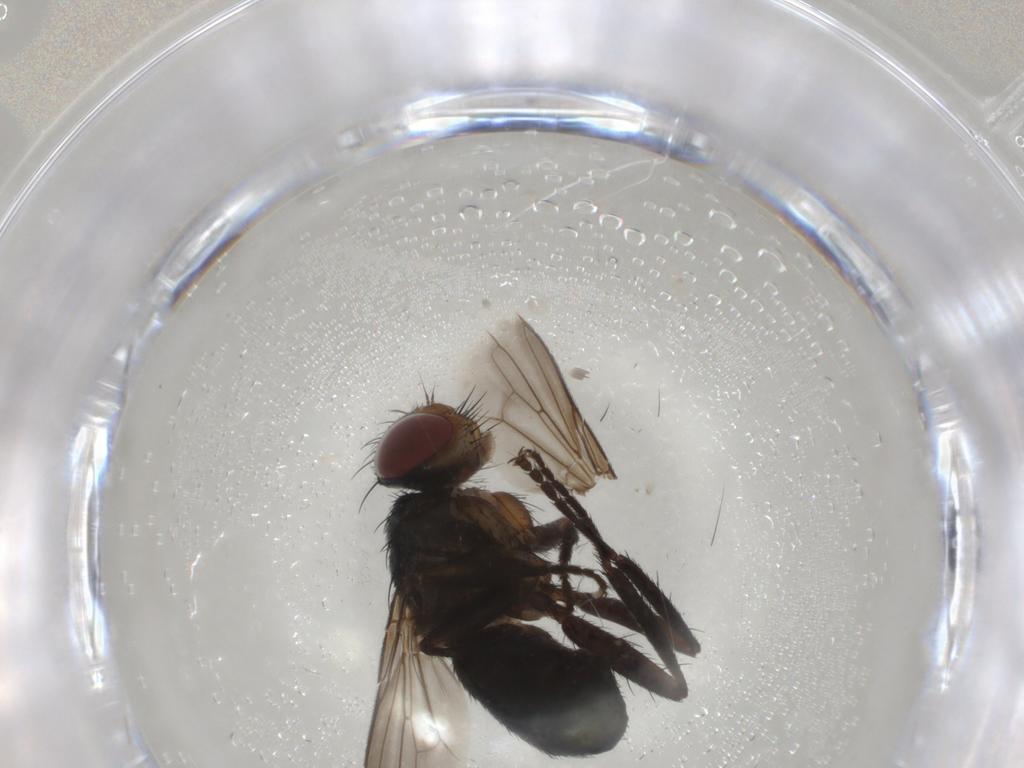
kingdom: Animalia
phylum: Arthropoda
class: Insecta
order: Diptera
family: Tachinidae
